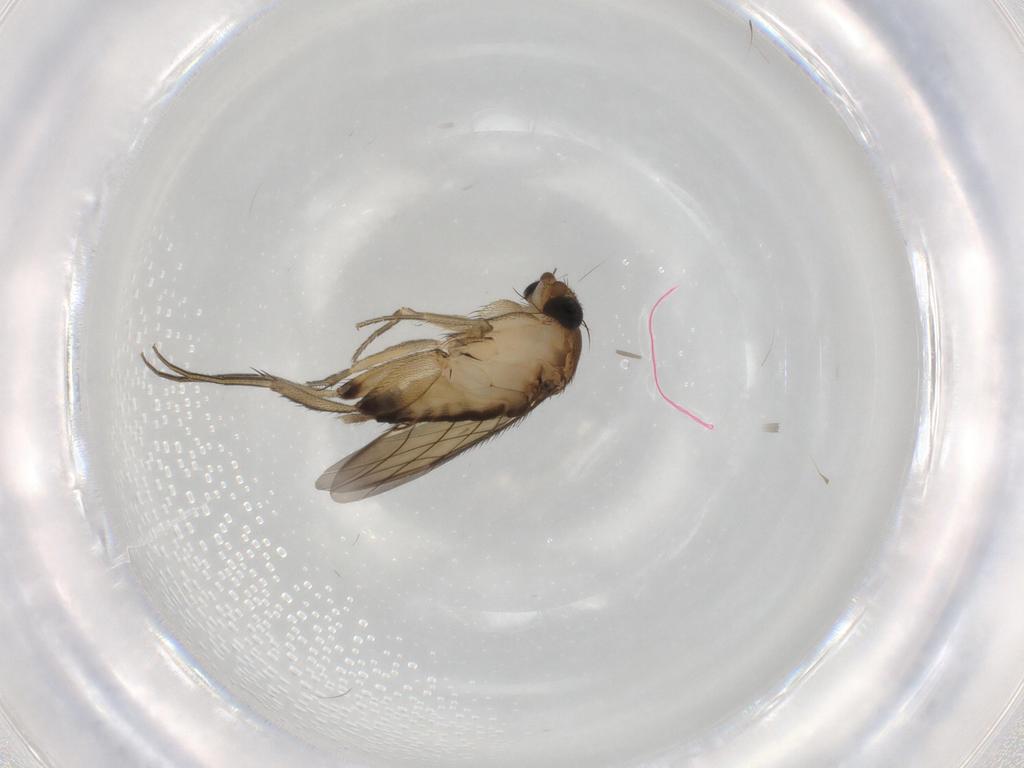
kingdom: Animalia
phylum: Arthropoda
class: Insecta
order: Diptera
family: Phoridae
